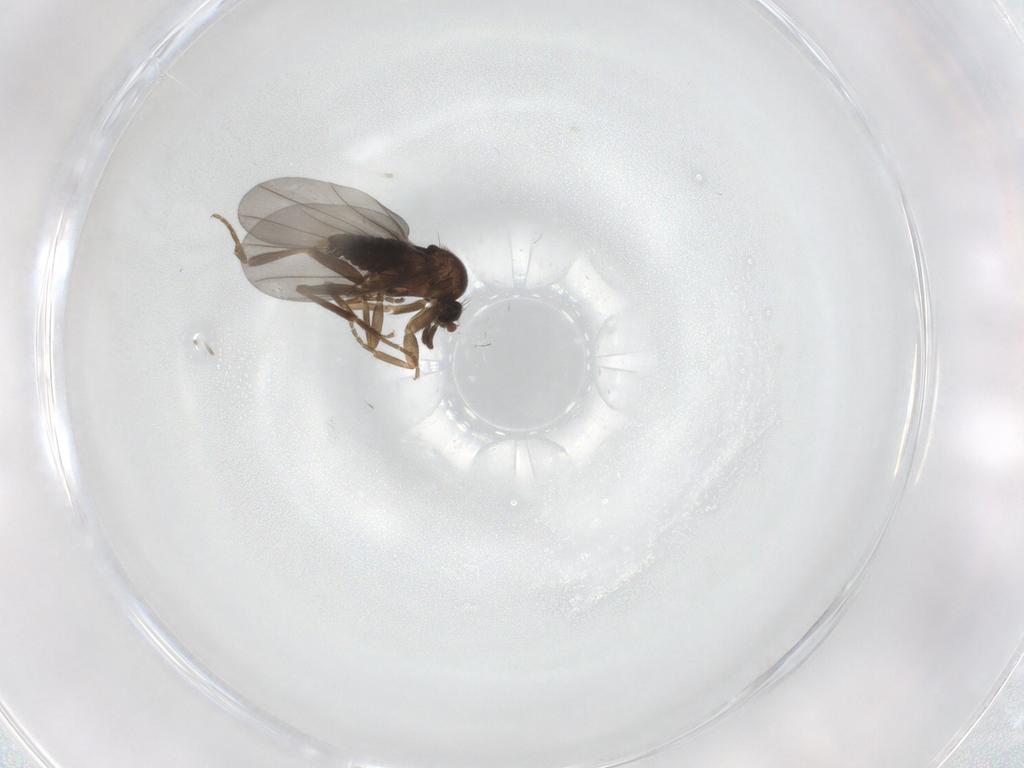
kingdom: Animalia
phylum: Arthropoda
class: Insecta
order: Diptera
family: Phoridae
